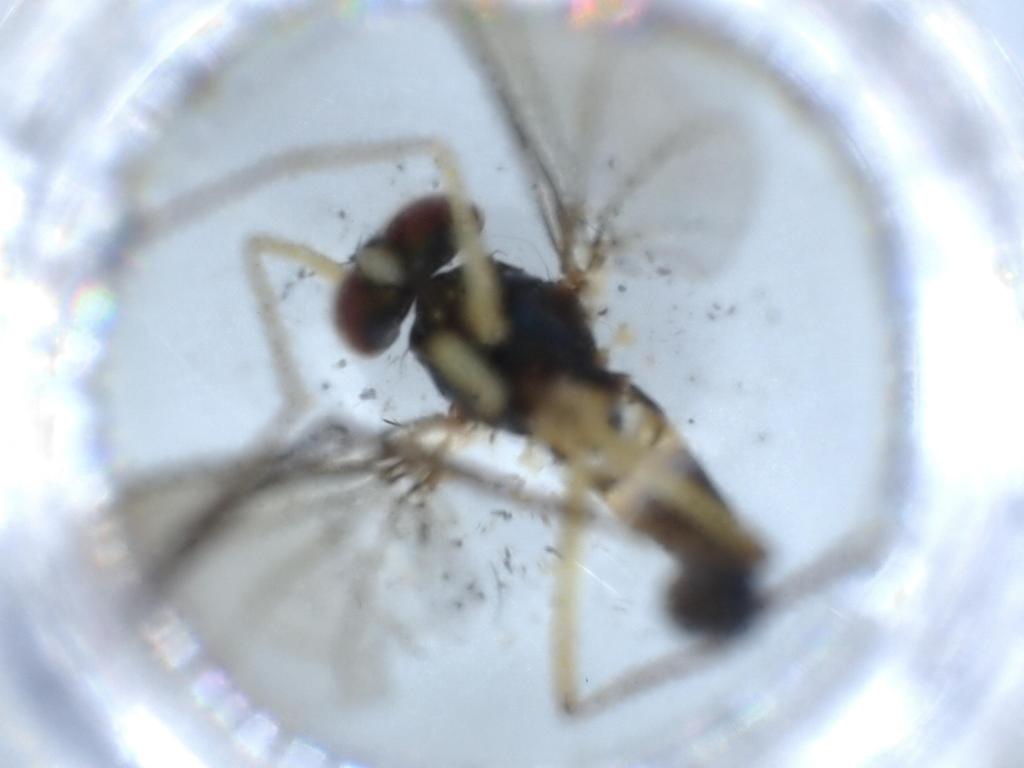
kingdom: Animalia
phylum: Arthropoda
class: Insecta
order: Diptera
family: Dolichopodidae
